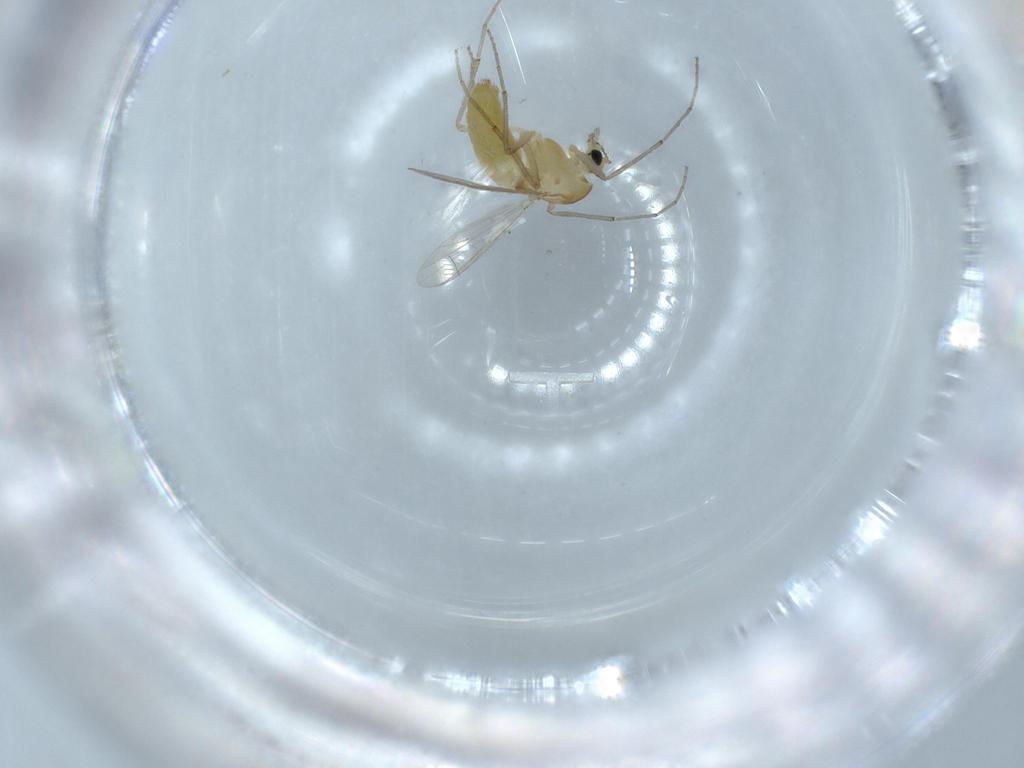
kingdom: Animalia
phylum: Arthropoda
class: Insecta
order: Diptera
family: Chironomidae
